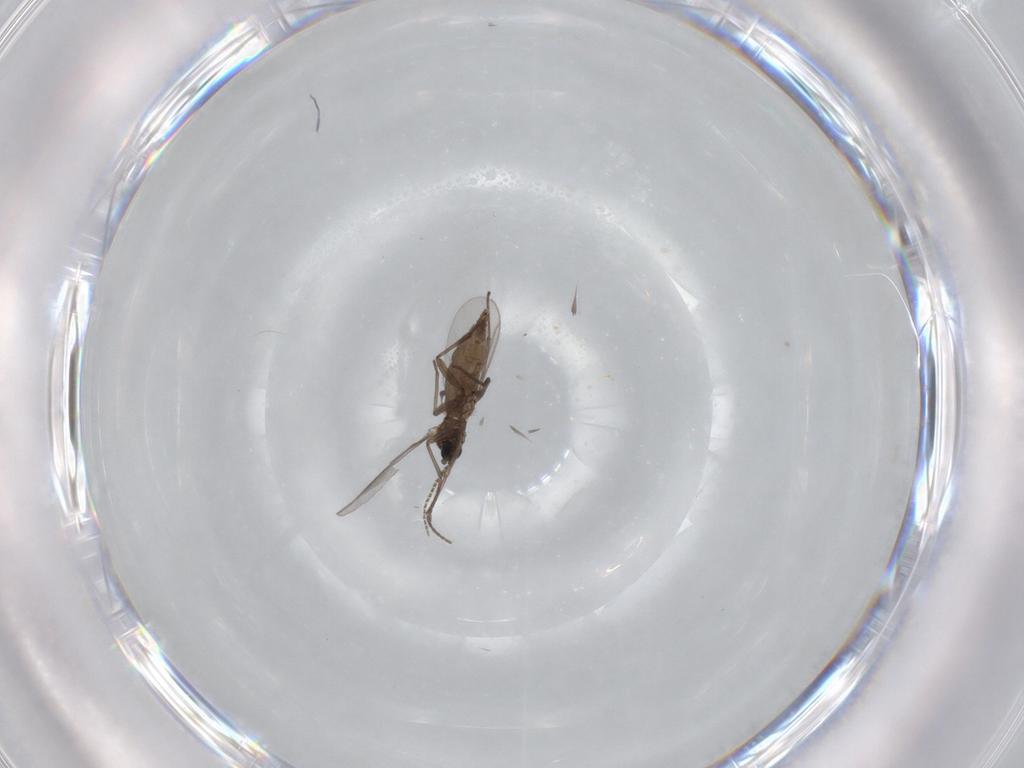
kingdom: Animalia
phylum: Arthropoda
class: Insecta
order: Diptera
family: Sciaridae
